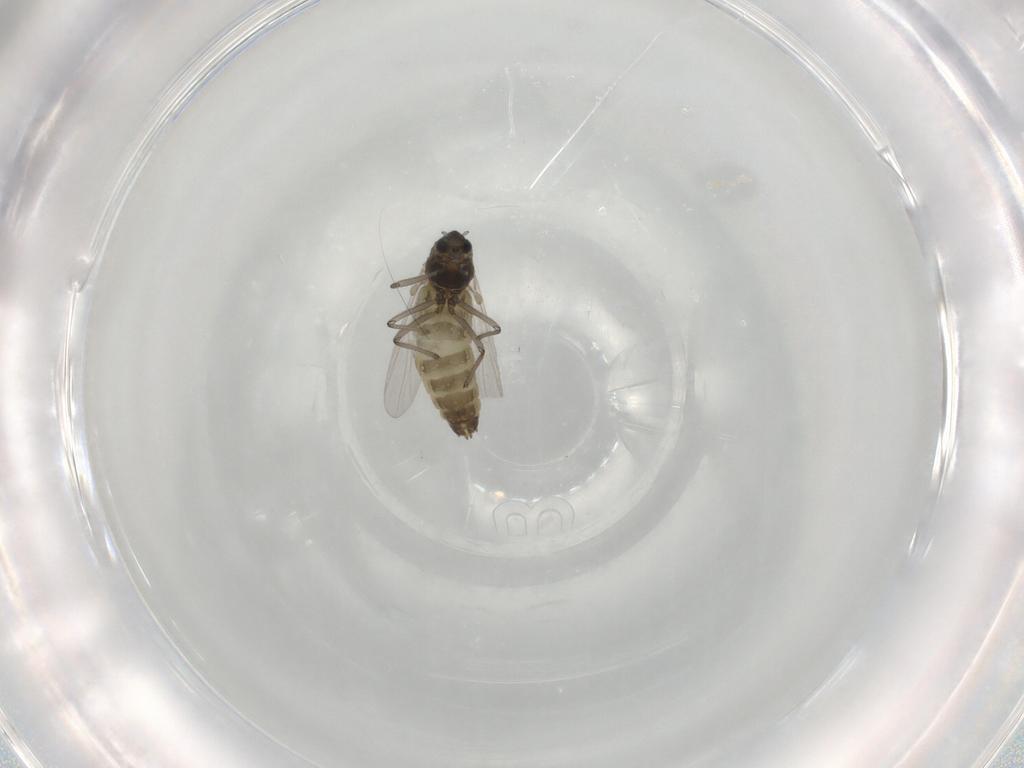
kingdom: Animalia
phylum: Arthropoda
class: Insecta
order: Diptera
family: Chironomidae
